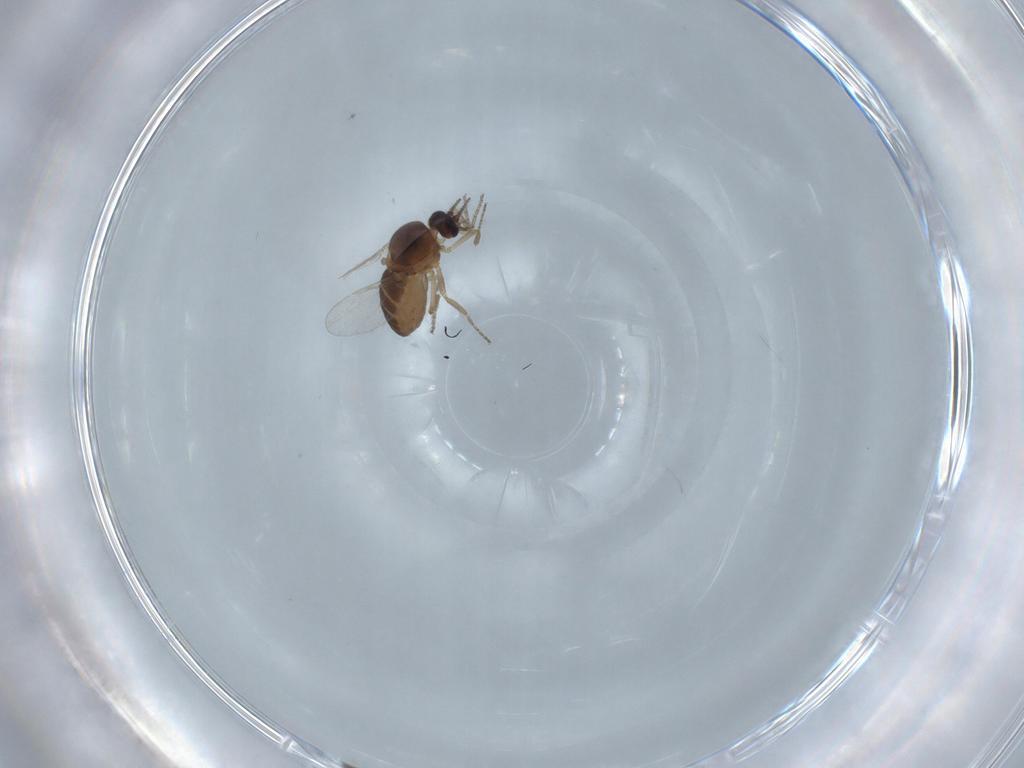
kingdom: Animalia
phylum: Arthropoda
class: Insecta
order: Diptera
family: Ceratopogonidae
